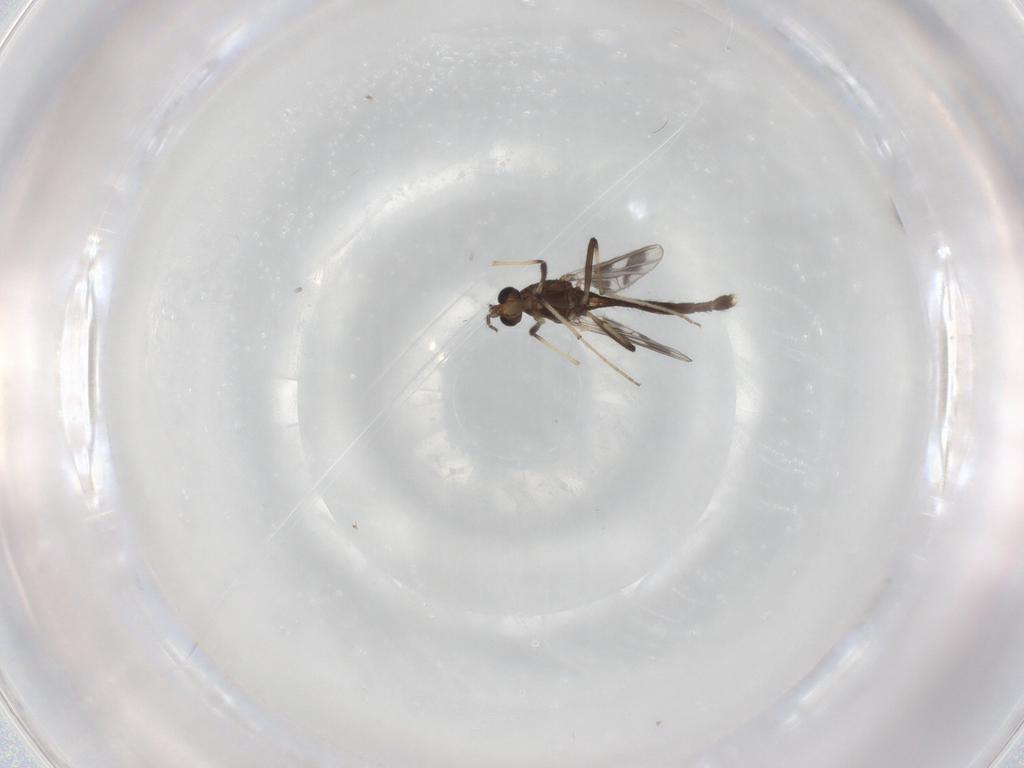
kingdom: Animalia
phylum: Arthropoda
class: Insecta
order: Diptera
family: Chironomidae
